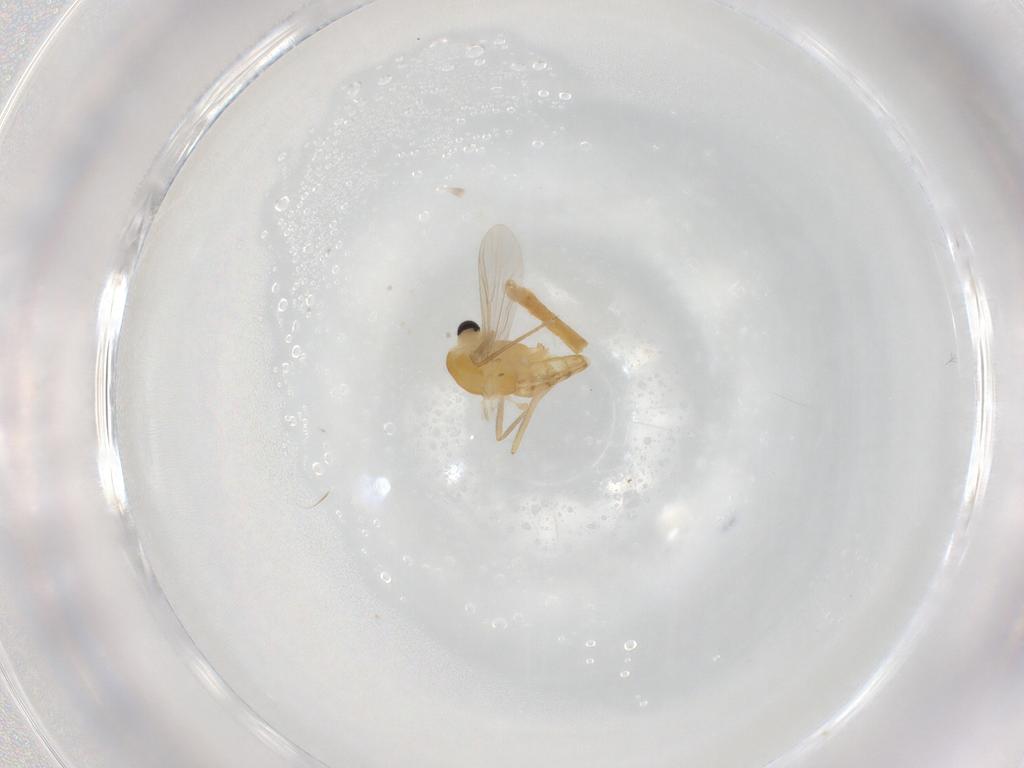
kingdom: Animalia
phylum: Arthropoda
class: Insecta
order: Diptera
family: Chironomidae
